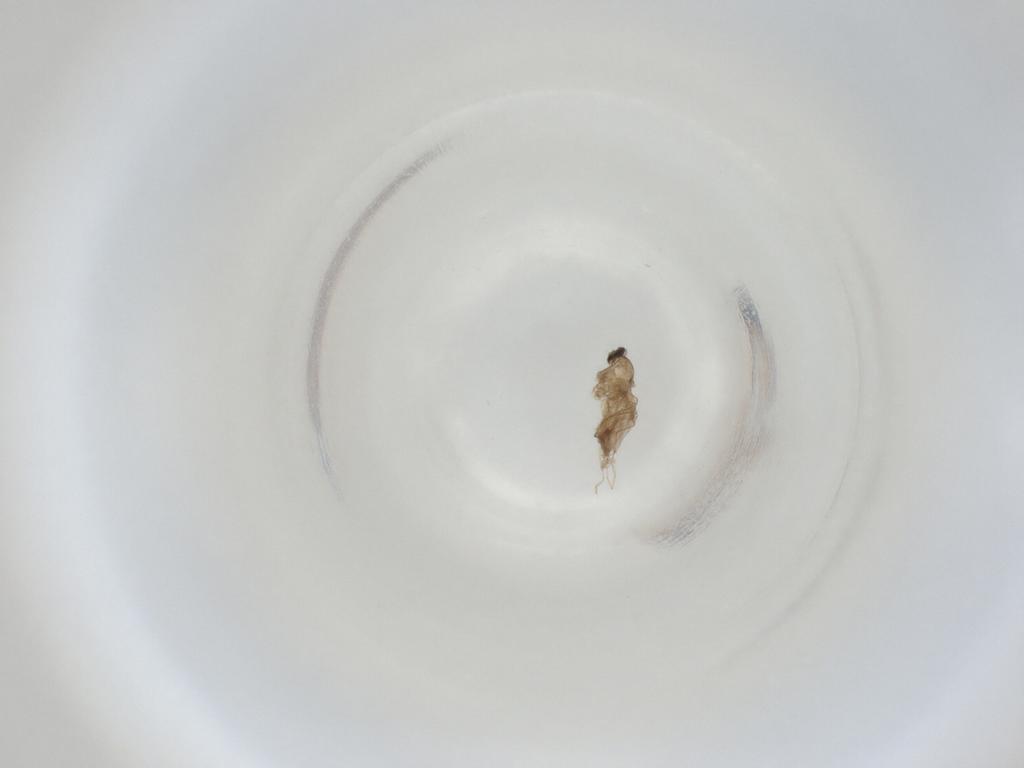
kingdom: Animalia
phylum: Arthropoda
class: Insecta
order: Diptera
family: Cecidomyiidae
